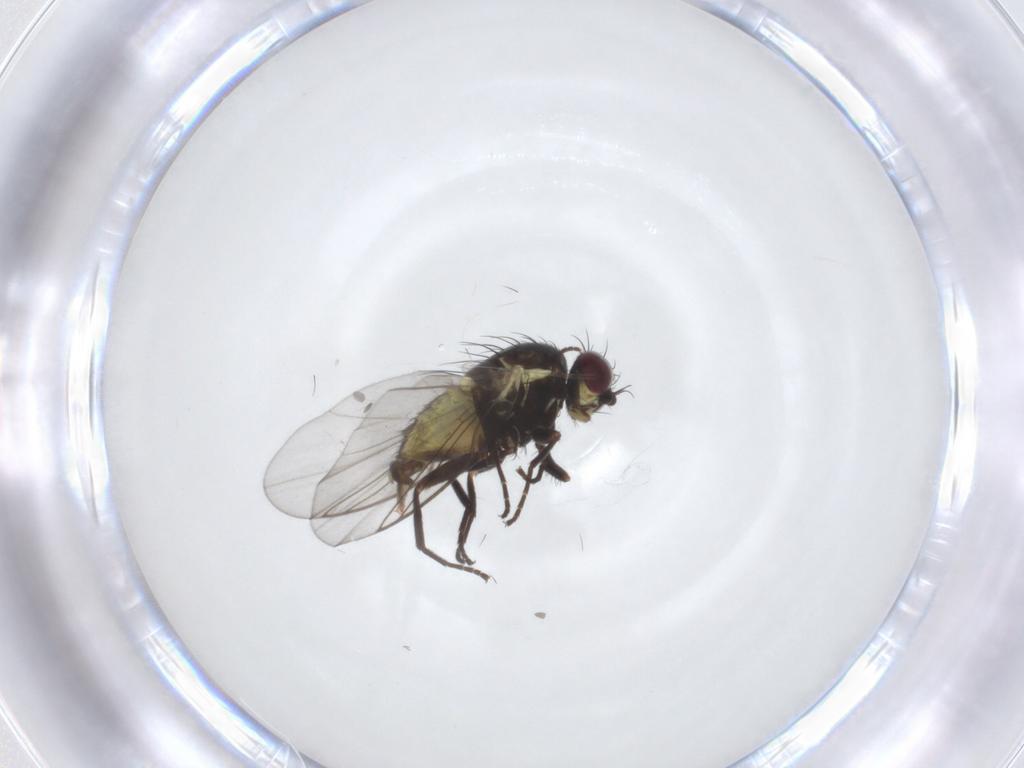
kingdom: Animalia
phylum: Arthropoda
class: Insecta
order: Diptera
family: Agromyzidae
